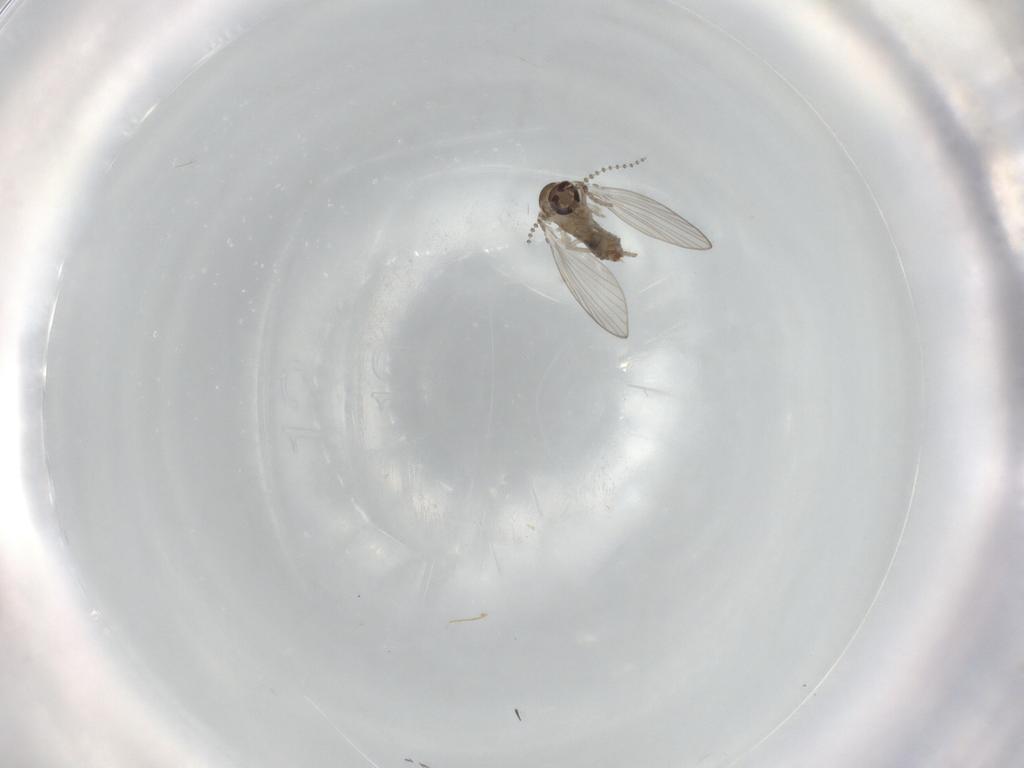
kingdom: Animalia
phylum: Arthropoda
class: Insecta
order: Diptera
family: Psychodidae
